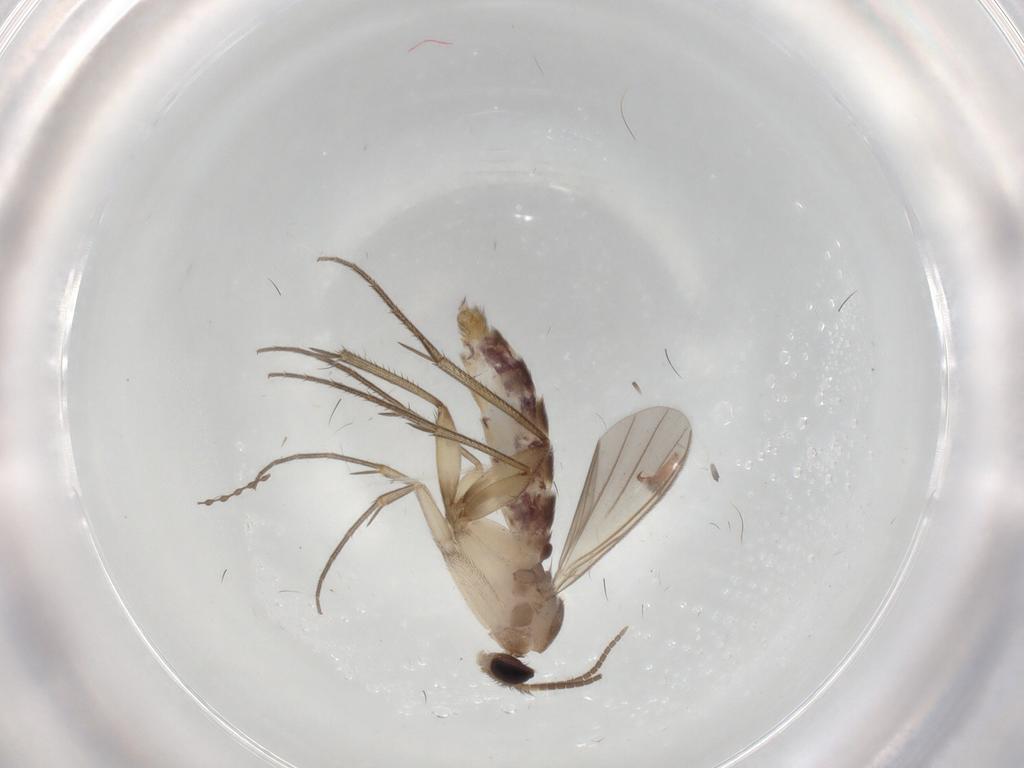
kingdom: Animalia
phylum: Arthropoda
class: Insecta
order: Diptera
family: Mycetophilidae
